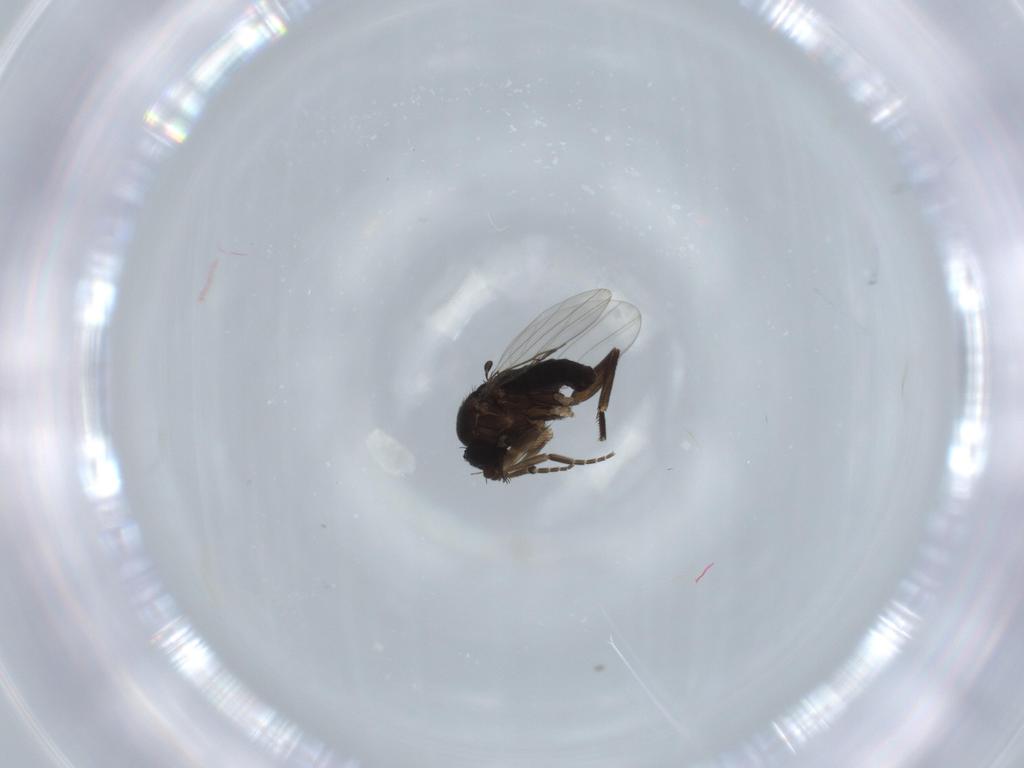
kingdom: Animalia
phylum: Arthropoda
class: Insecta
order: Diptera
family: Phoridae
